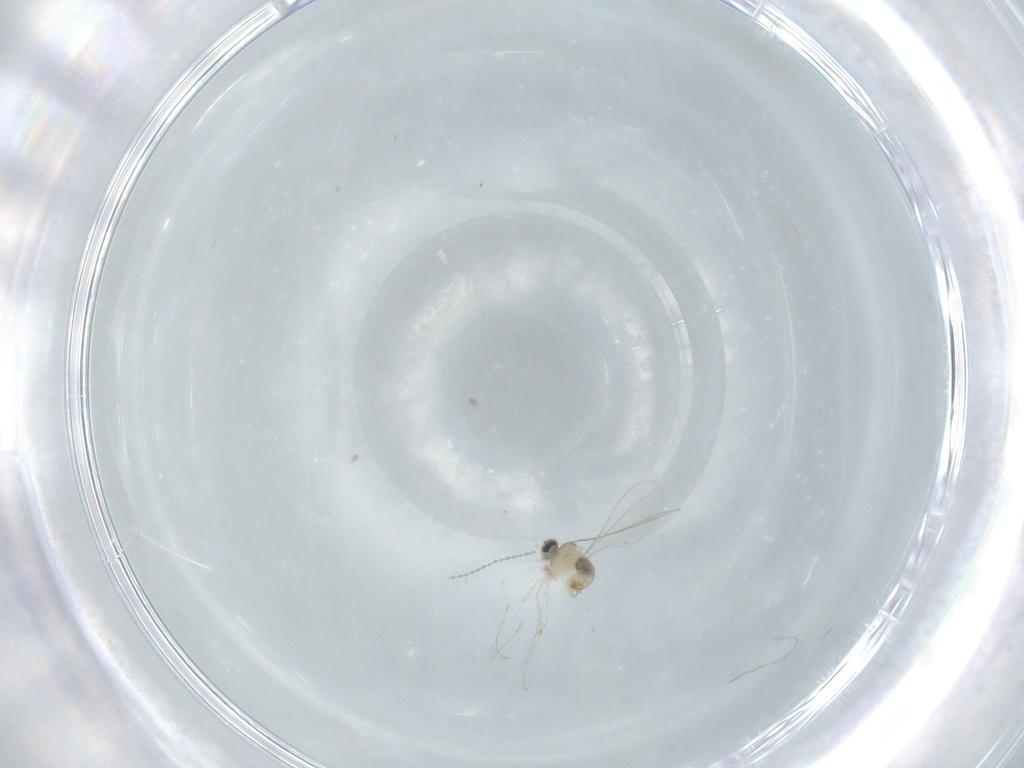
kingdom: Animalia
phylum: Arthropoda
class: Insecta
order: Diptera
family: Cecidomyiidae
